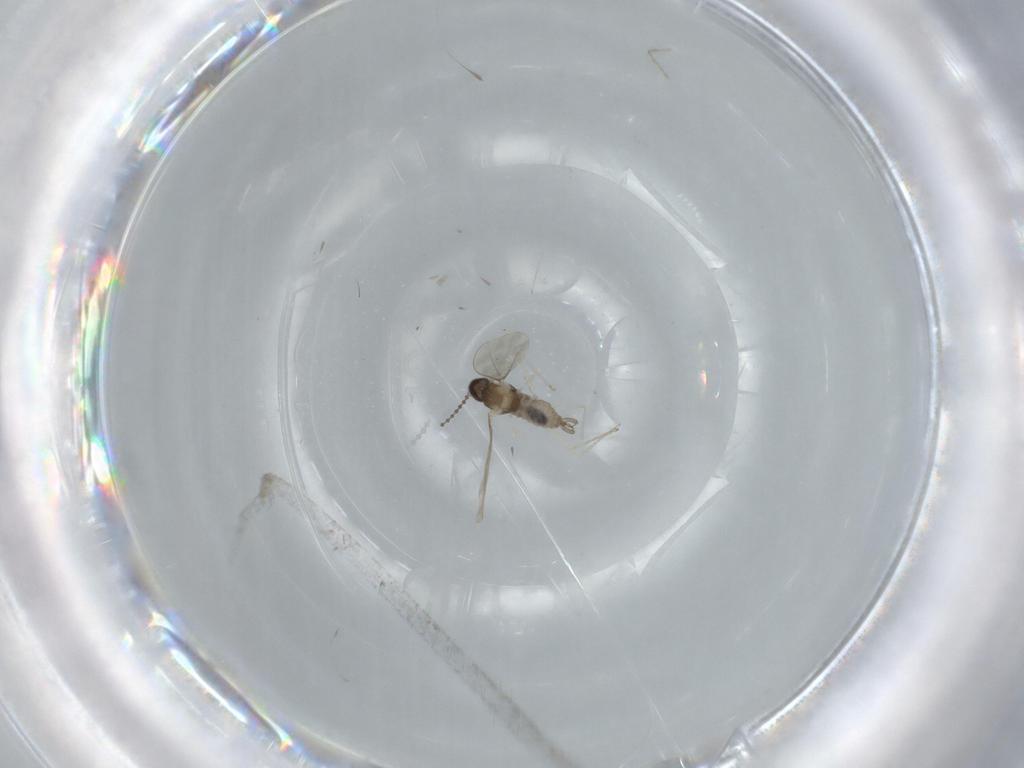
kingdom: Animalia
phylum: Arthropoda
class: Insecta
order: Diptera
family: Cecidomyiidae
